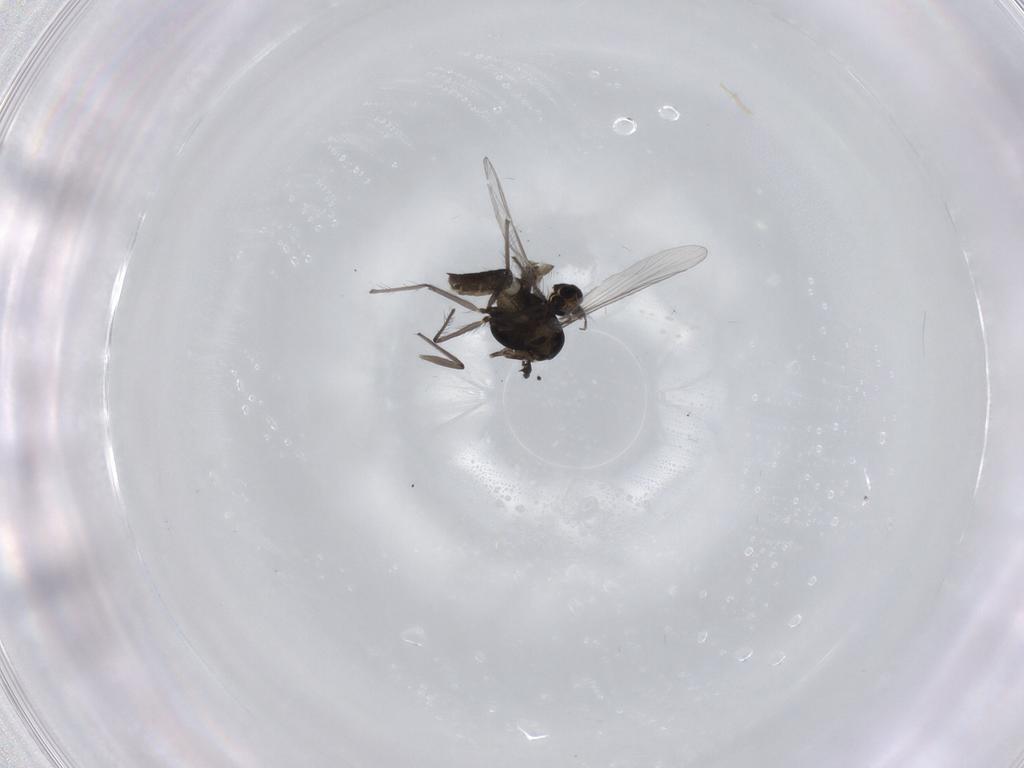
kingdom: Animalia
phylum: Arthropoda
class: Insecta
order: Diptera
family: Chironomidae
